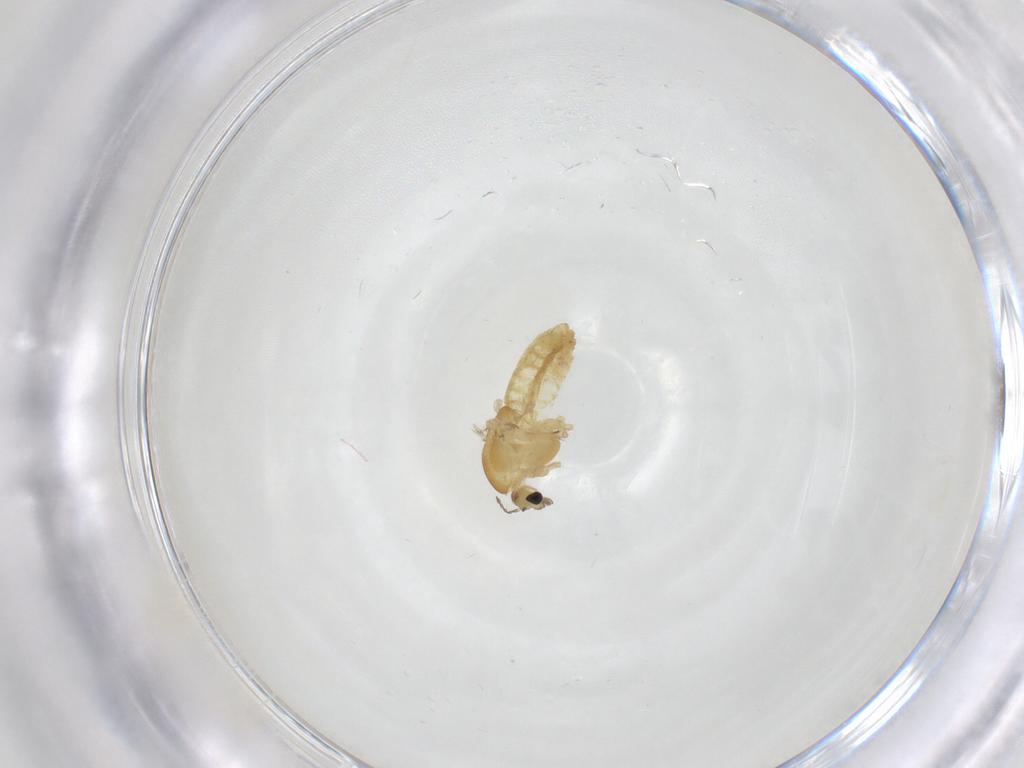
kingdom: Animalia
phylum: Arthropoda
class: Insecta
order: Diptera
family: Chironomidae
